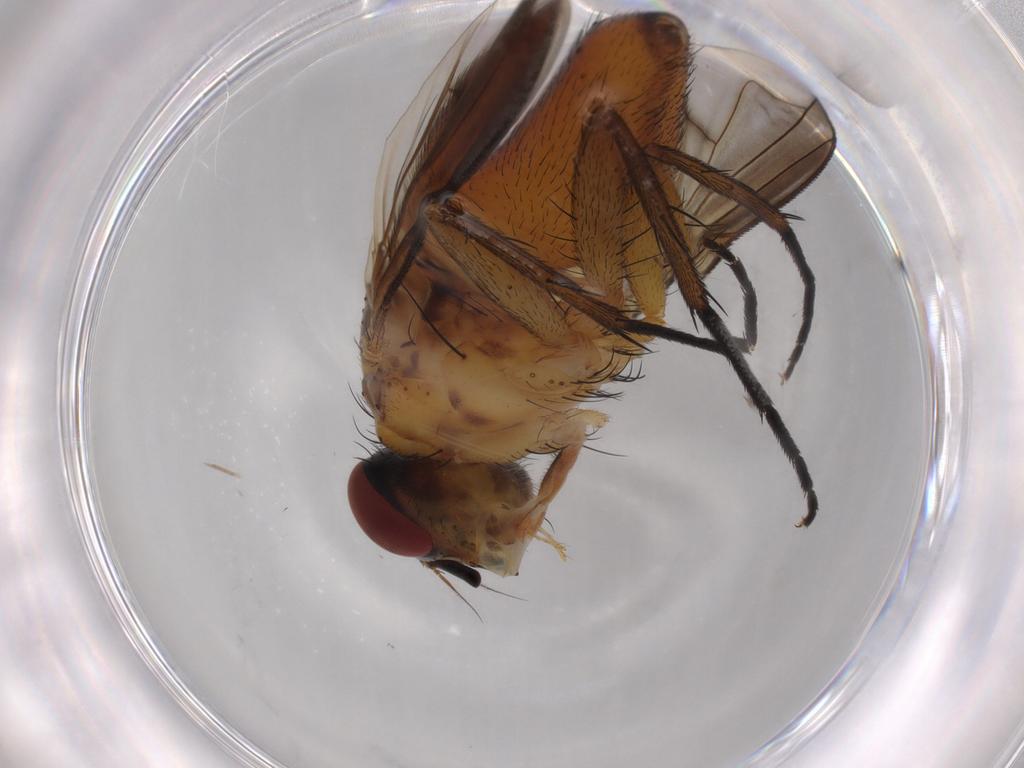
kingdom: Animalia
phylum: Arthropoda
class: Insecta
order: Diptera
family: Tachinidae
